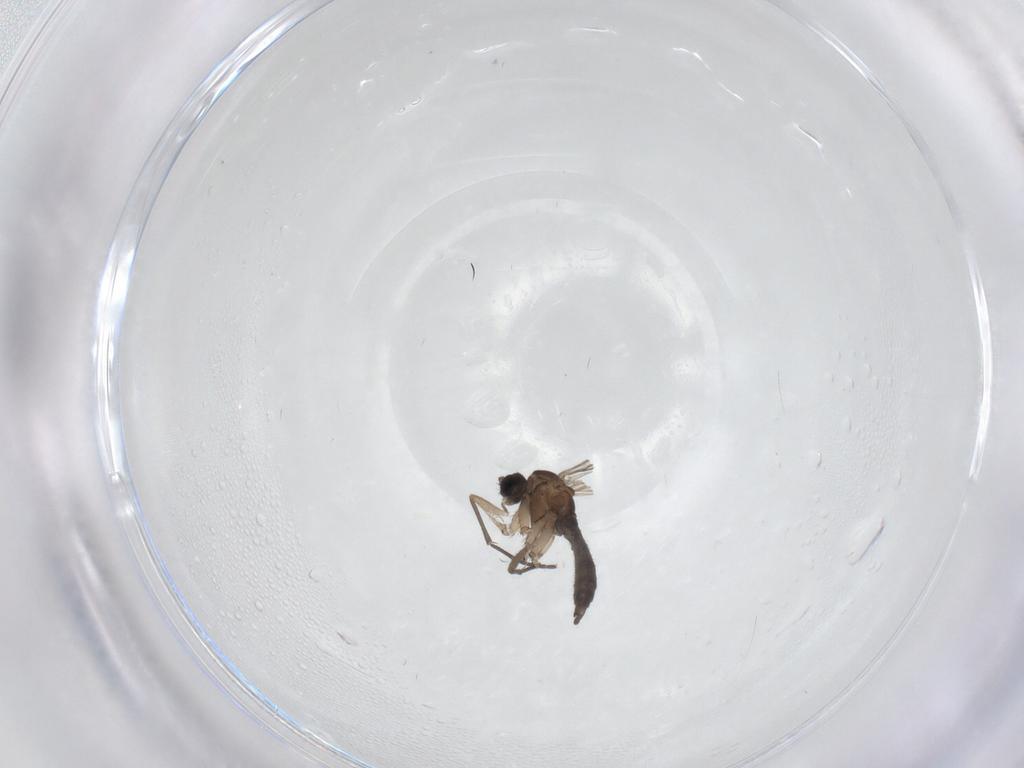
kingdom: Animalia
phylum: Arthropoda
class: Insecta
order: Diptera
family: Sciaridae
